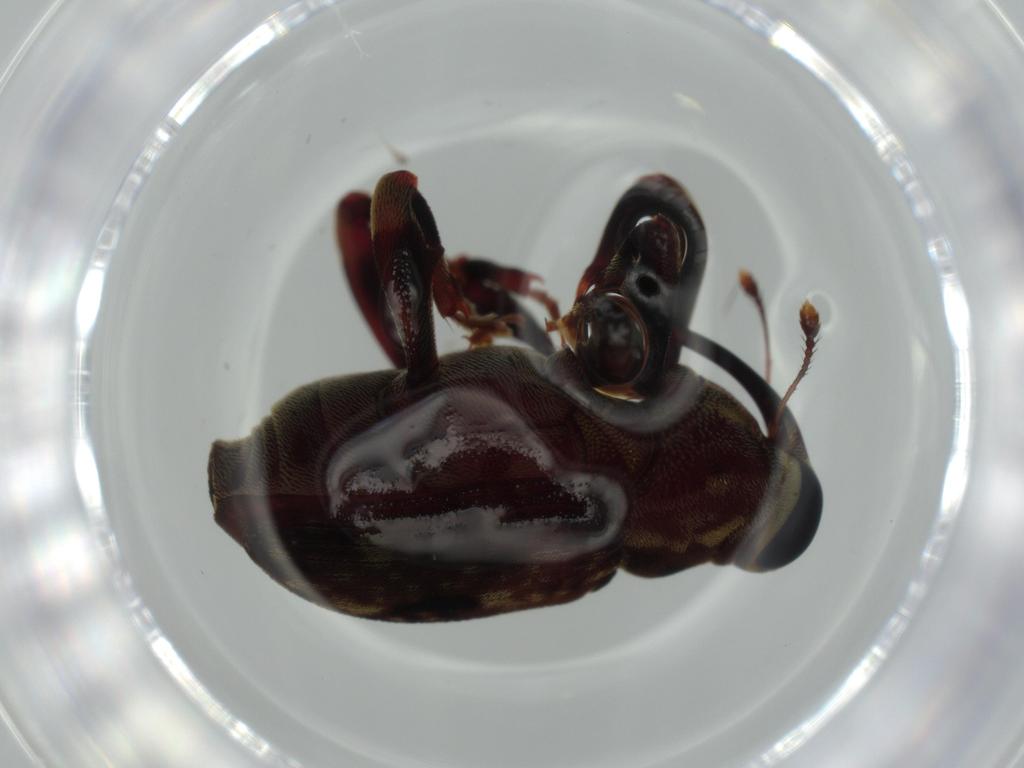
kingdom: Animalia
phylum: Arthropoda
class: Insecta
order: Coleoptera
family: Curculionidae
